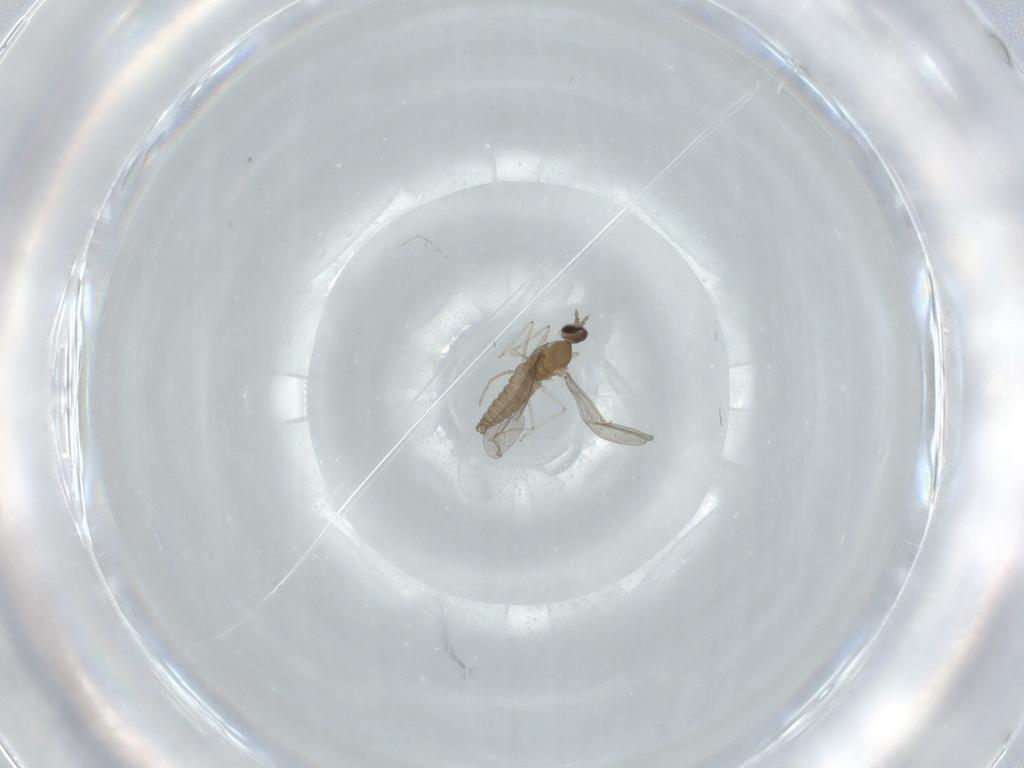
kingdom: Animalia
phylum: Arthropoda
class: Insecta
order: Diptera
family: Cecidomyiidae
